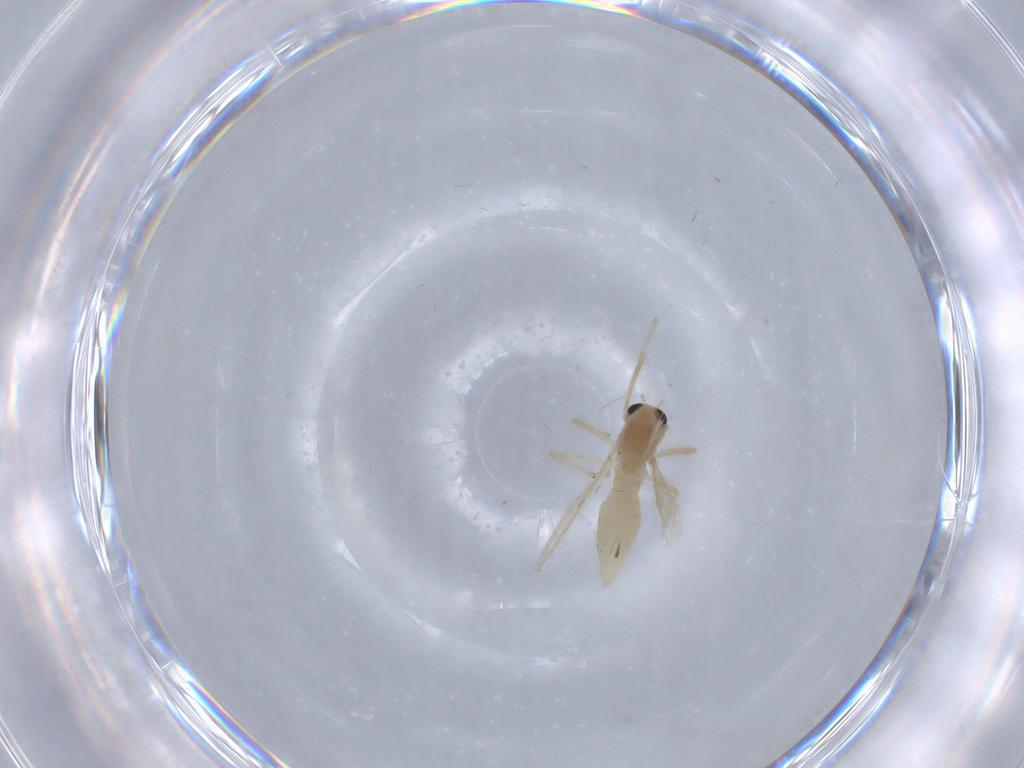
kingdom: Animalia
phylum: Arthropoda
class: Insecta
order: Diptera
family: Chironomidae
